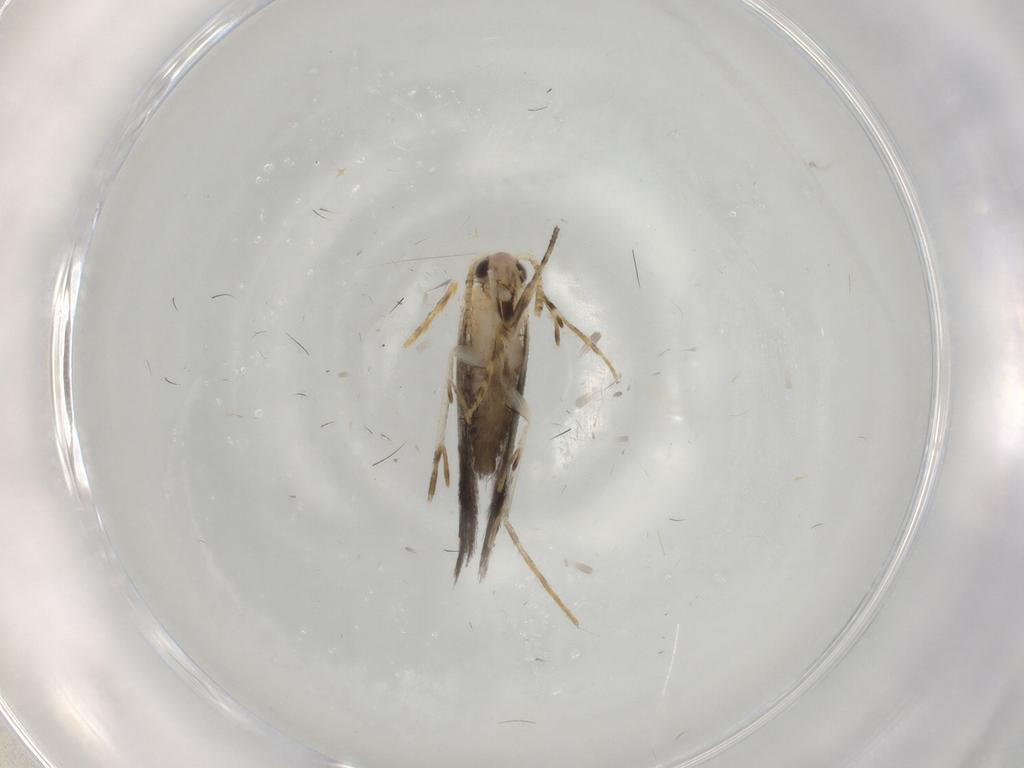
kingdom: Animalia
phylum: Arthropoda
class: Insecta
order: Lepidoptera
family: Tineidae
